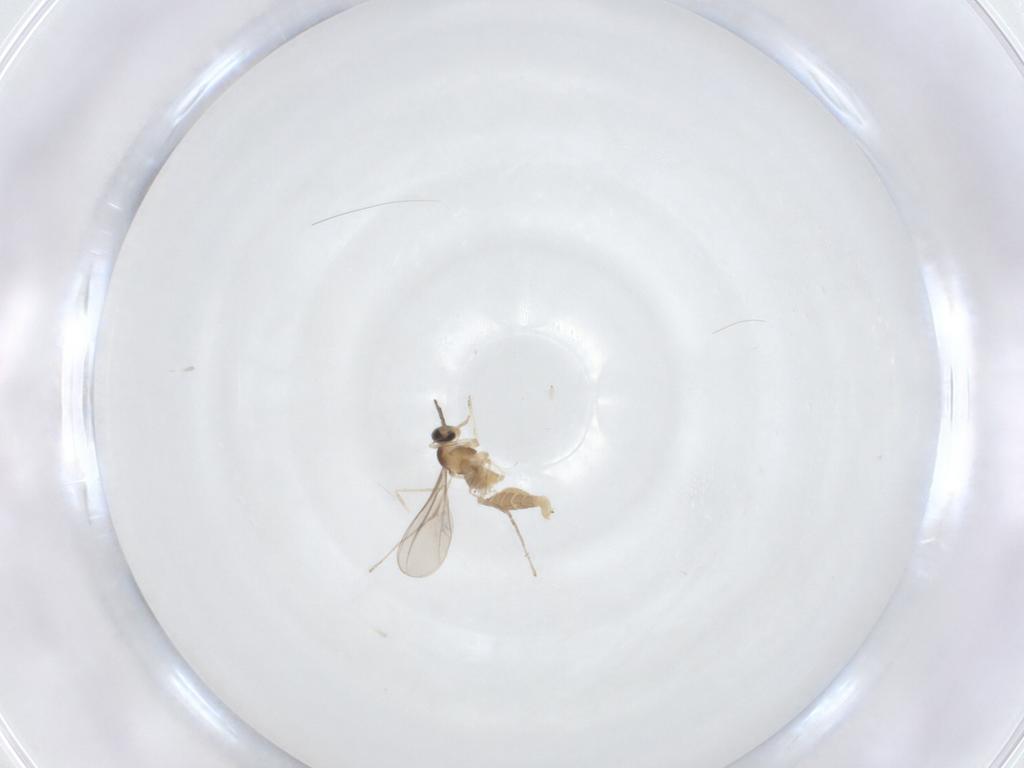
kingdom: Animalia
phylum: Arthropoda
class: Insecta
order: Diptera
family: Cecidomyiidae
